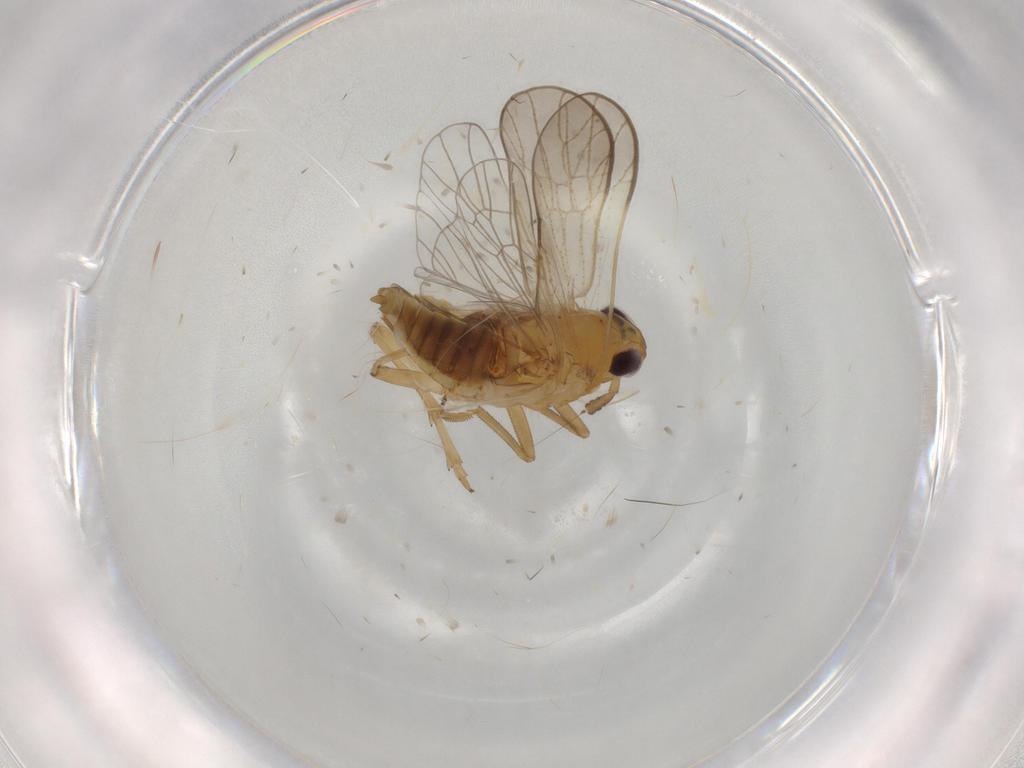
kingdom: Animalia
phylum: Arthropoda
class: Insecta
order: Hemiptera
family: Delphacidae
